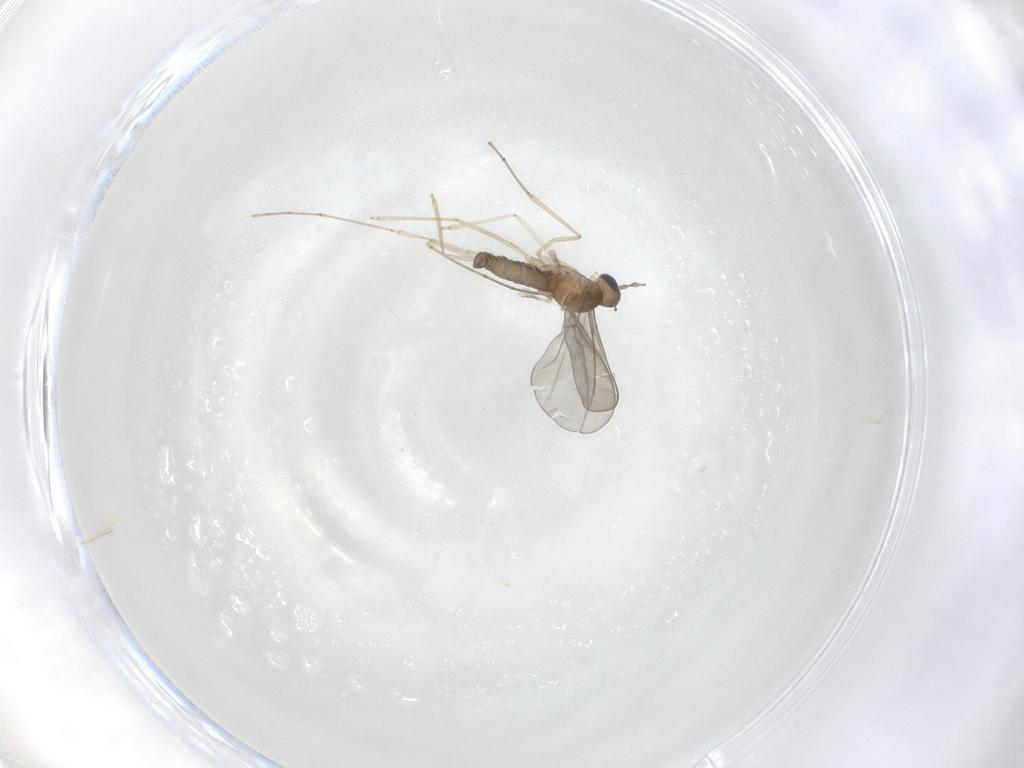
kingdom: Animalia
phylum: Arthropoda
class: Insecta
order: Diptera
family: Cecidomyiidae
